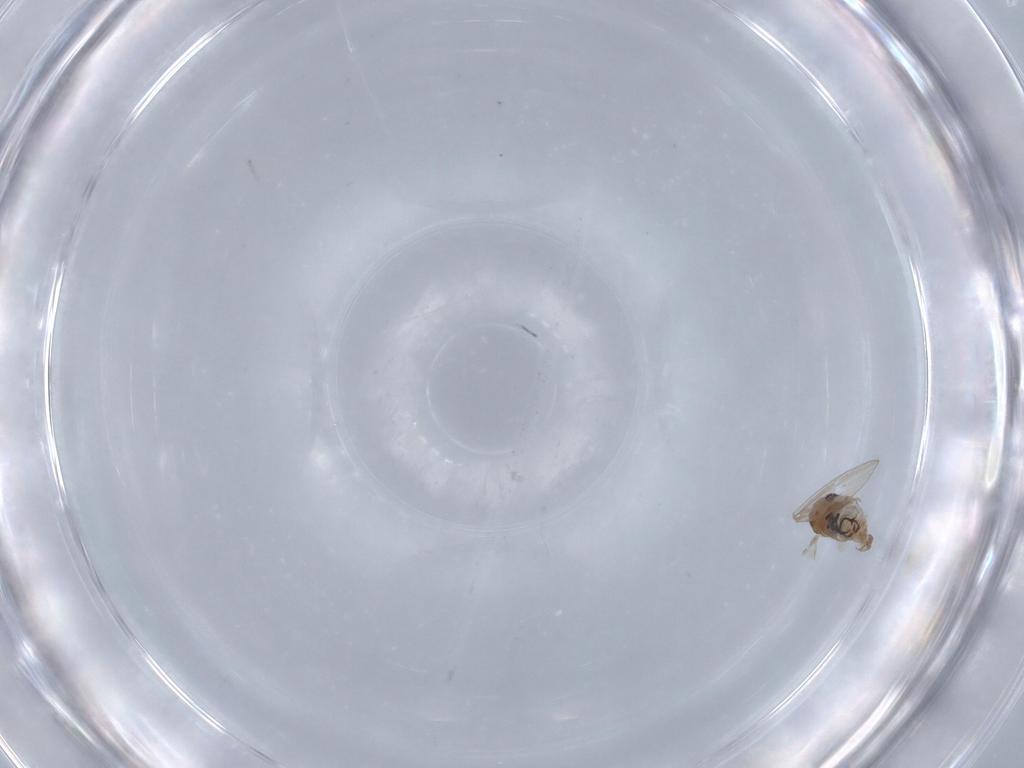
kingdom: Animalia
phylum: Arthropoda
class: Insecta
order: Diptera
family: Psychodidae
